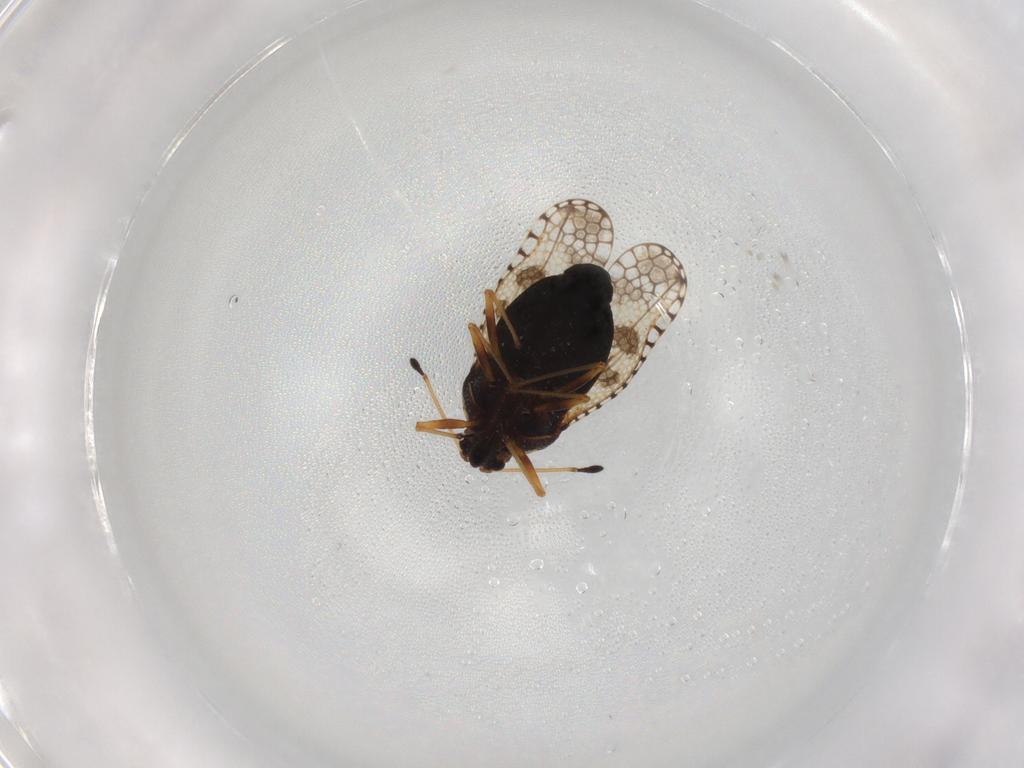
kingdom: Animalia
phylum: Arthropoda
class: Insecta
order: Hemiptera
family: Tingidae
